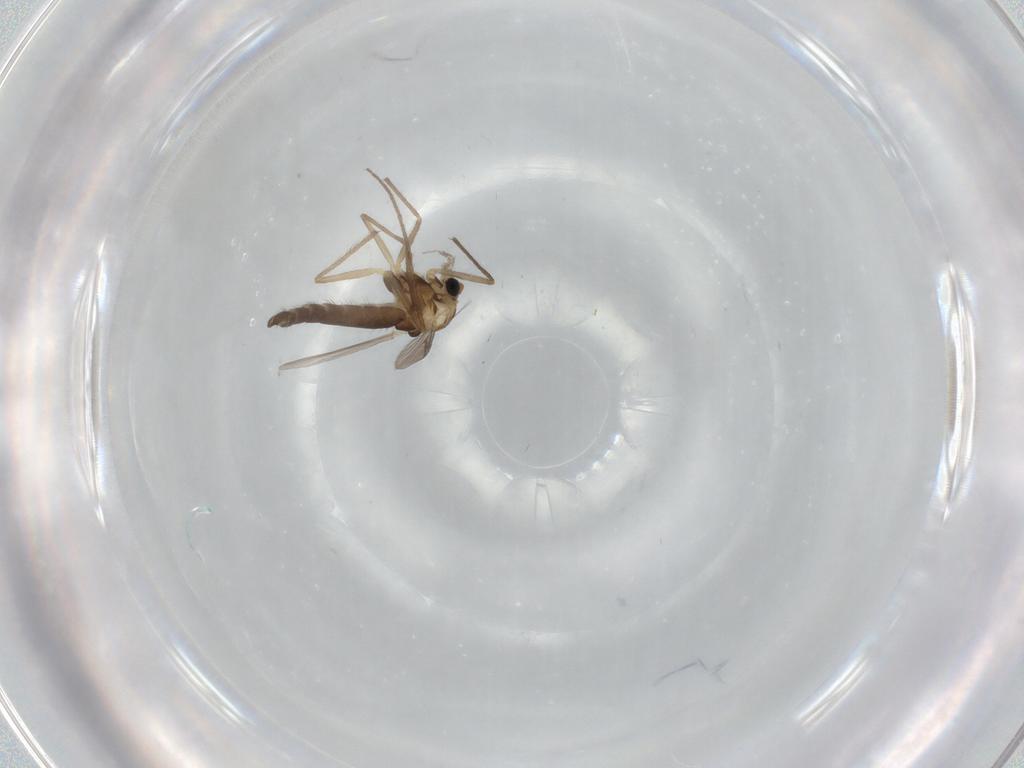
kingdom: Animalia
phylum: Arthropoda
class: Insecta
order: Diptera
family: Chironomidae
